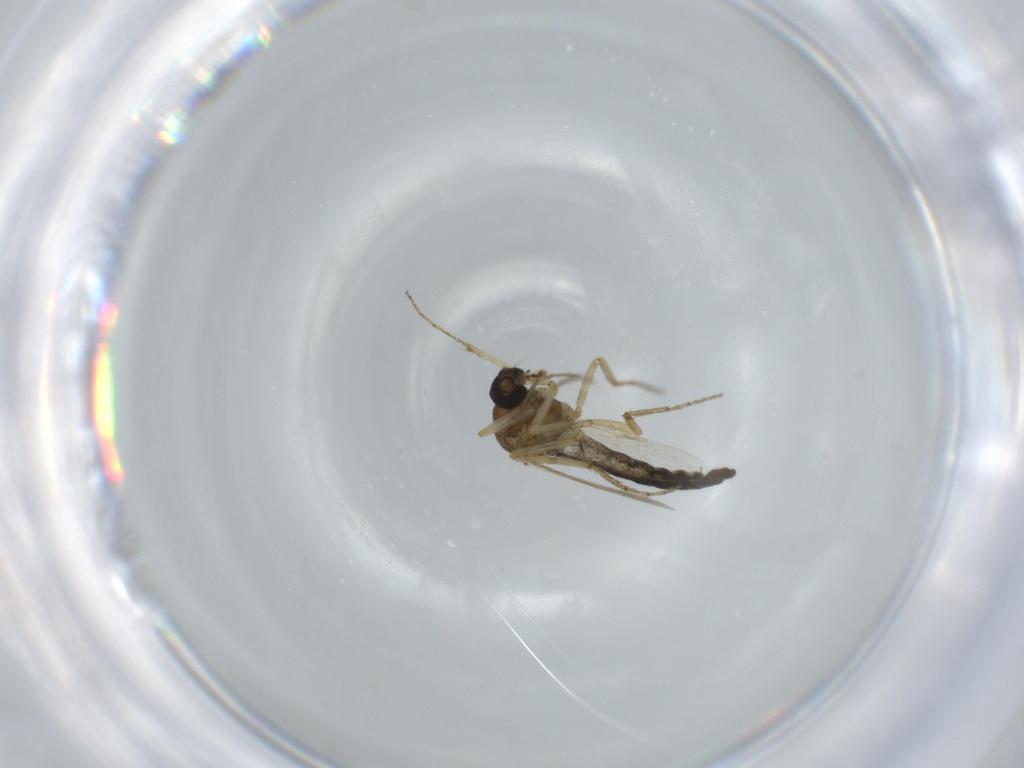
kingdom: Animalia
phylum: Arthropoda
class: Insecta
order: Diptera
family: Ceratopogonidae
